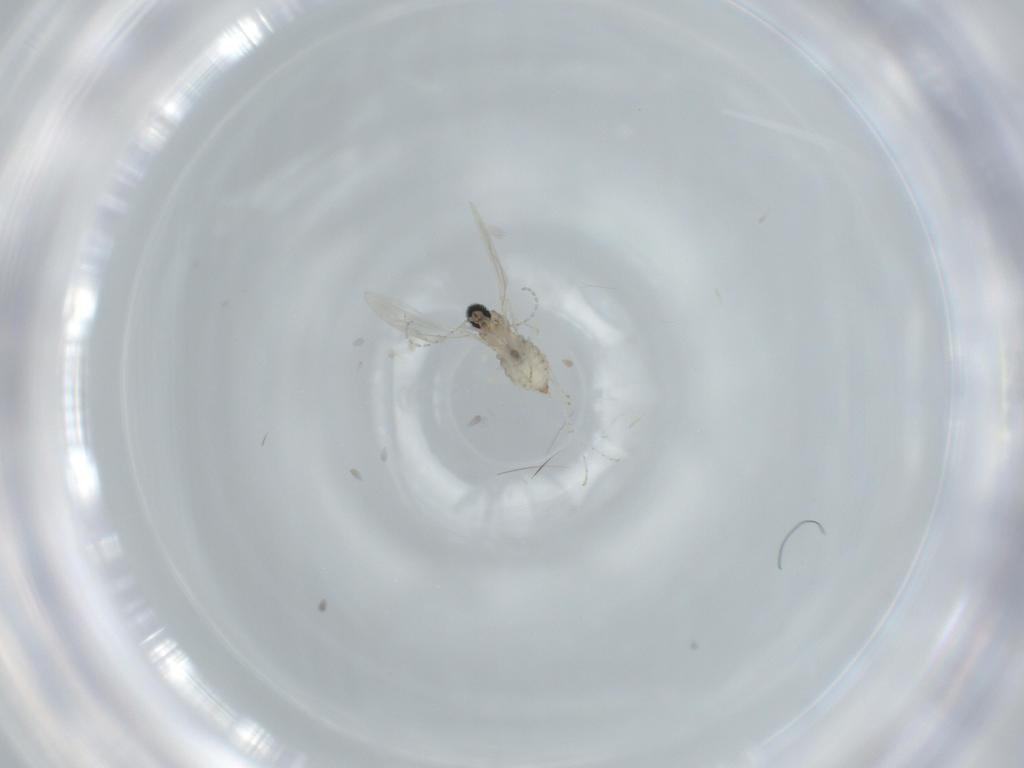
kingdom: Animalia
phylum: Arthropoda
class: Insecta
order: Diptera
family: Cecidomyiidae
